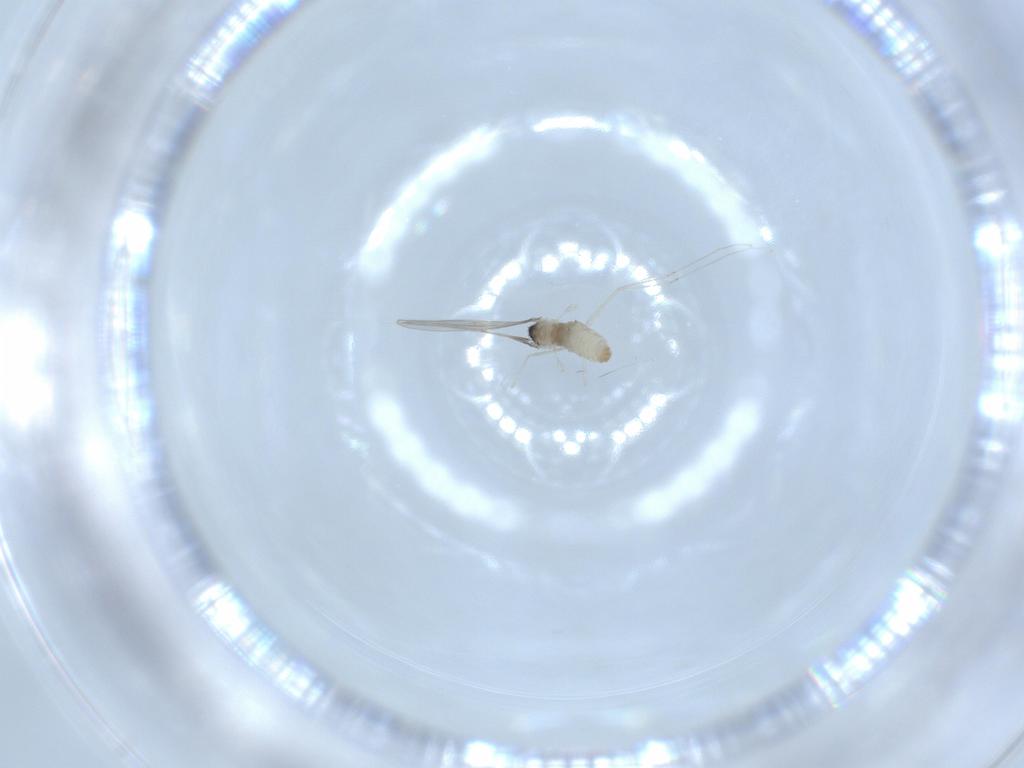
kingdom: Animalia
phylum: Arthropoda
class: Insecta
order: Diptera
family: Cecidomyiidae
